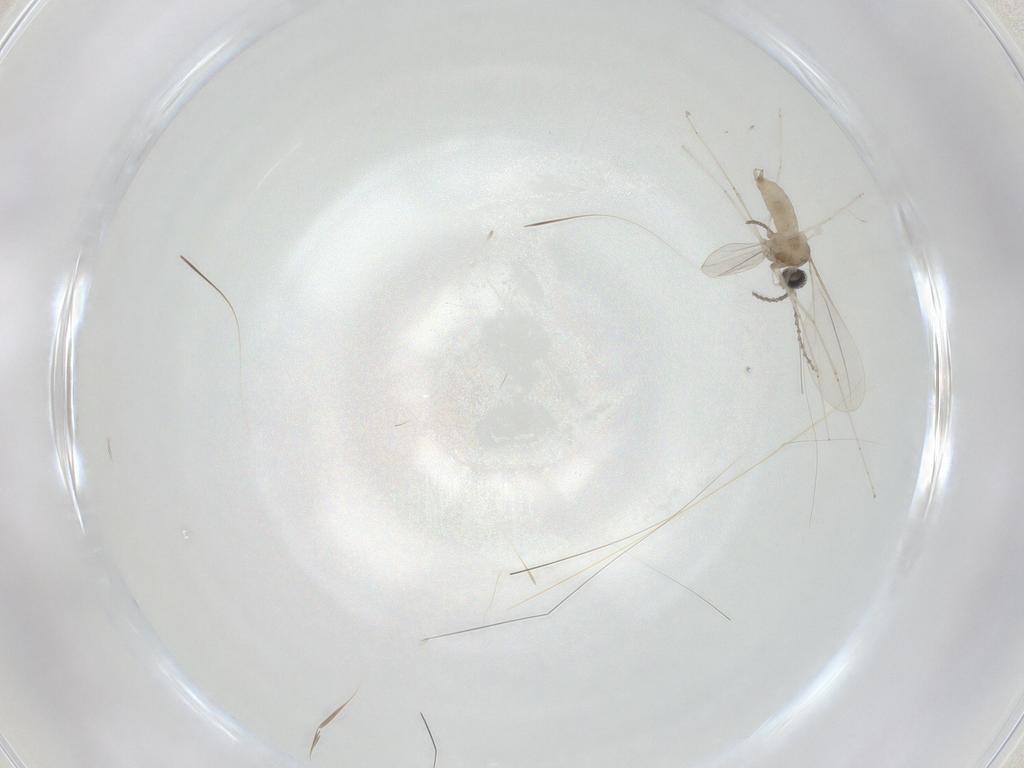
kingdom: Animalia
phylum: Arthropoda
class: Insecta
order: Diptera
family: Cecidomyiidae
